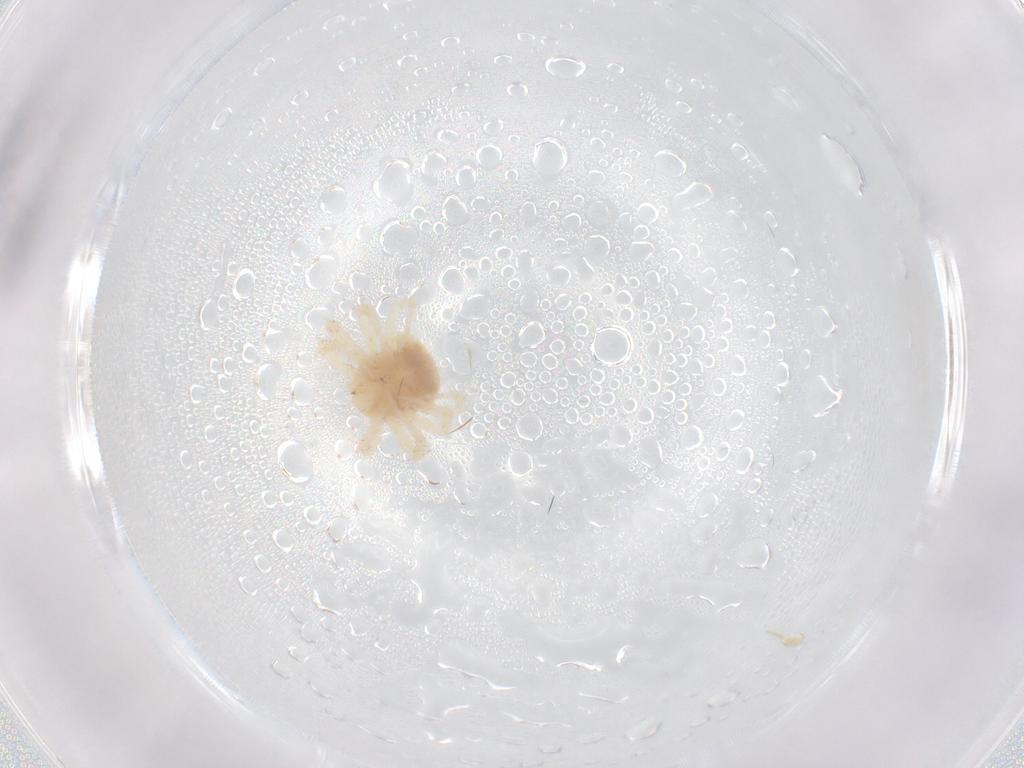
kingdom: Animalia
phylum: Arthropoda
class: Arachnida
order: Trombidiformes
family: Anystidae
